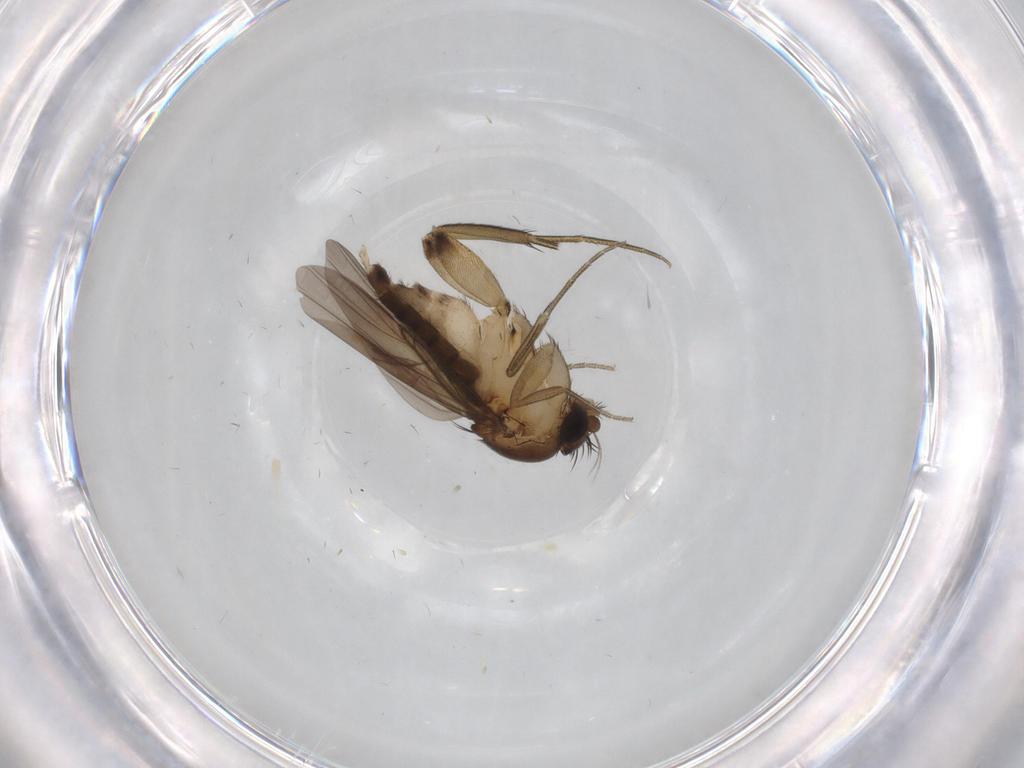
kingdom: Animalia
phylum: Arthropoda
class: Insecta
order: Diptera
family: Phoridae
